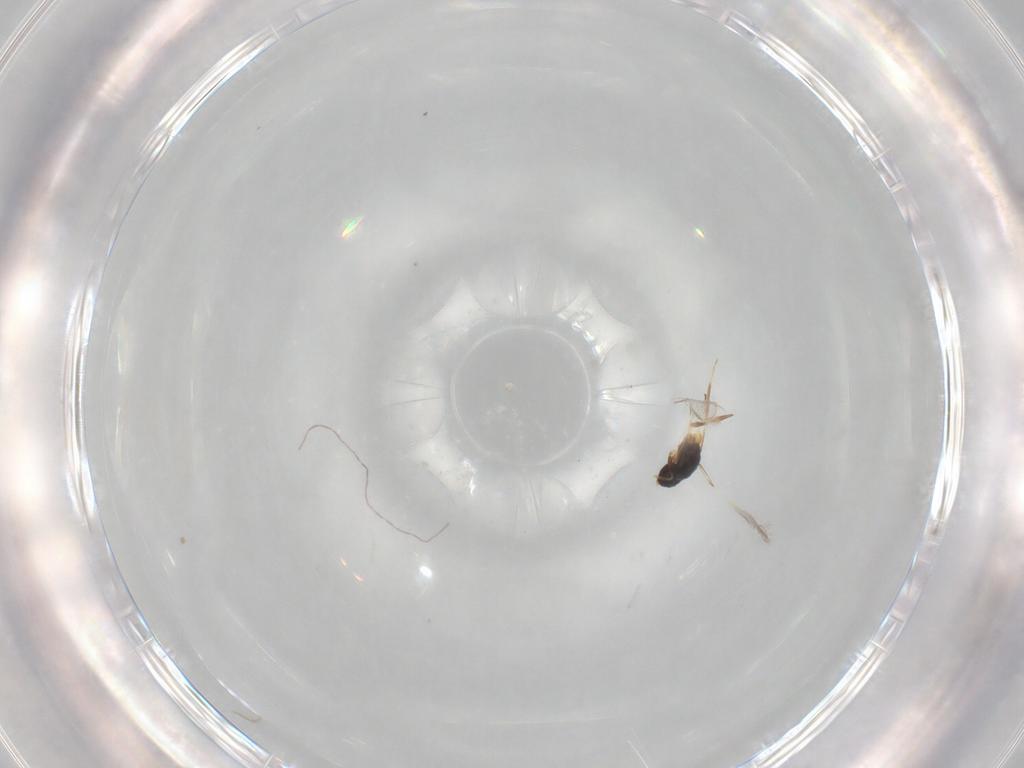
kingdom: Animalia
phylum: Arthropoda
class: Insecta
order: Hymenoptera
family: Mymaridae
